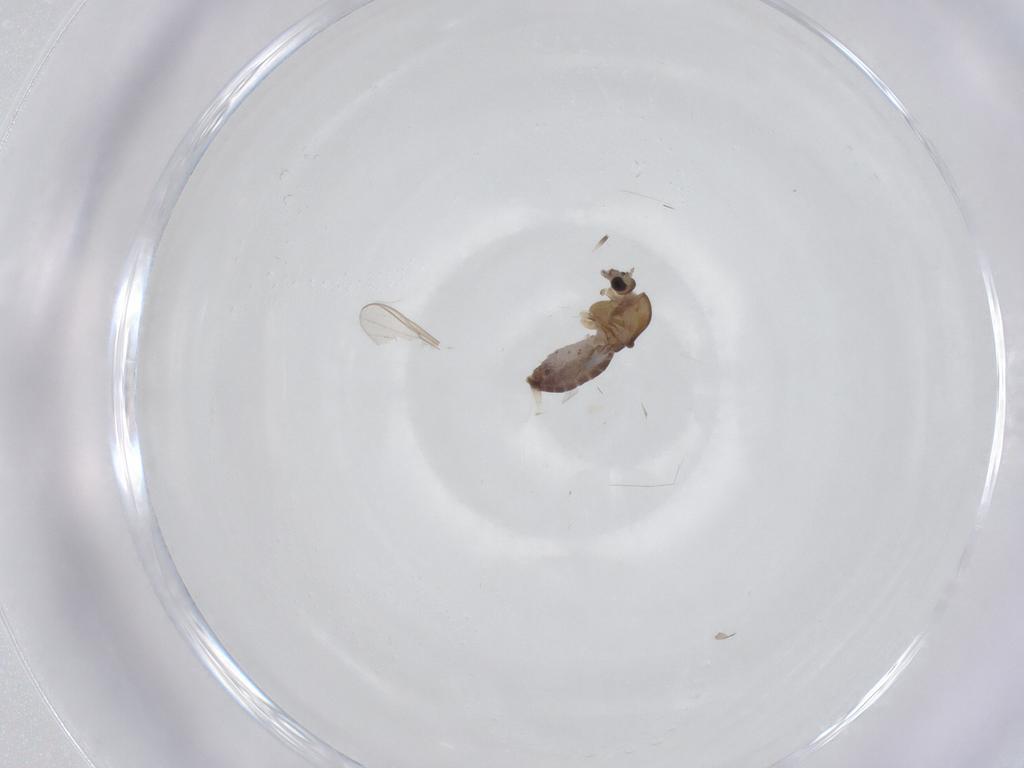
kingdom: Animalia
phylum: Arthropoda
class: Insecta
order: Diptera
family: Chironomidae
